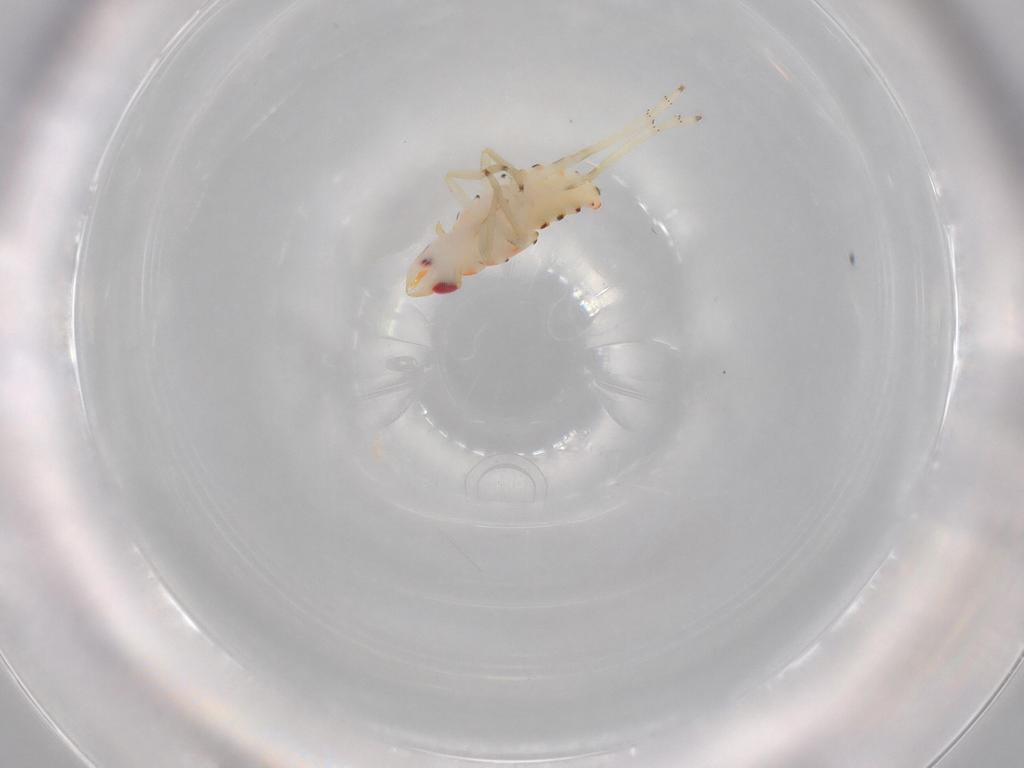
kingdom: Animalia
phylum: Arthropoda
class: Insecta
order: Hemiptera
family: Tropiduchidae
